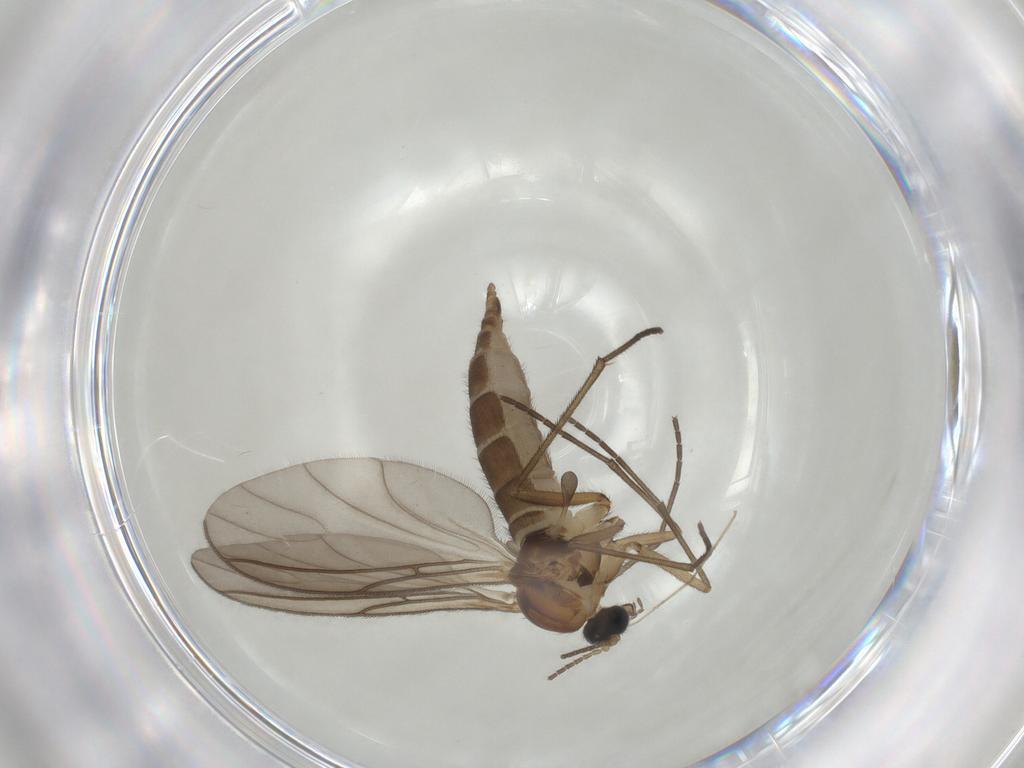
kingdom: Animalia
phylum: Arthropoda
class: Insecta
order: Diptera
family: Sciaridae
